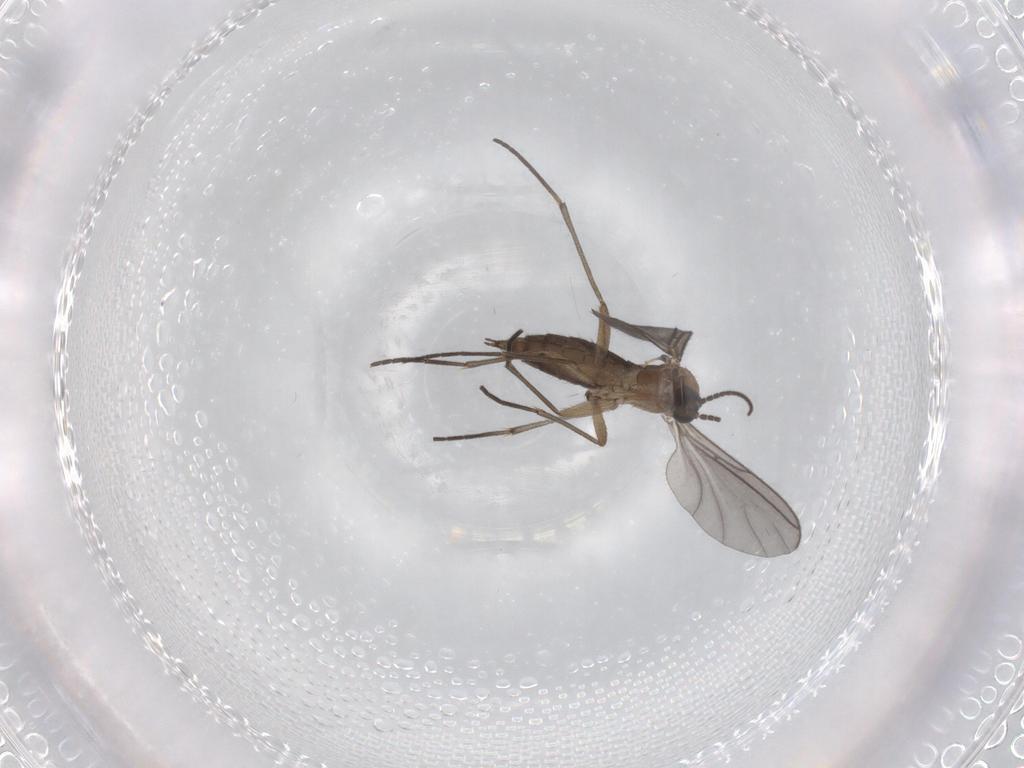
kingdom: Animalia
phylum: Arthropoda
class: Insecta
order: Diptera
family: Sciaridae
